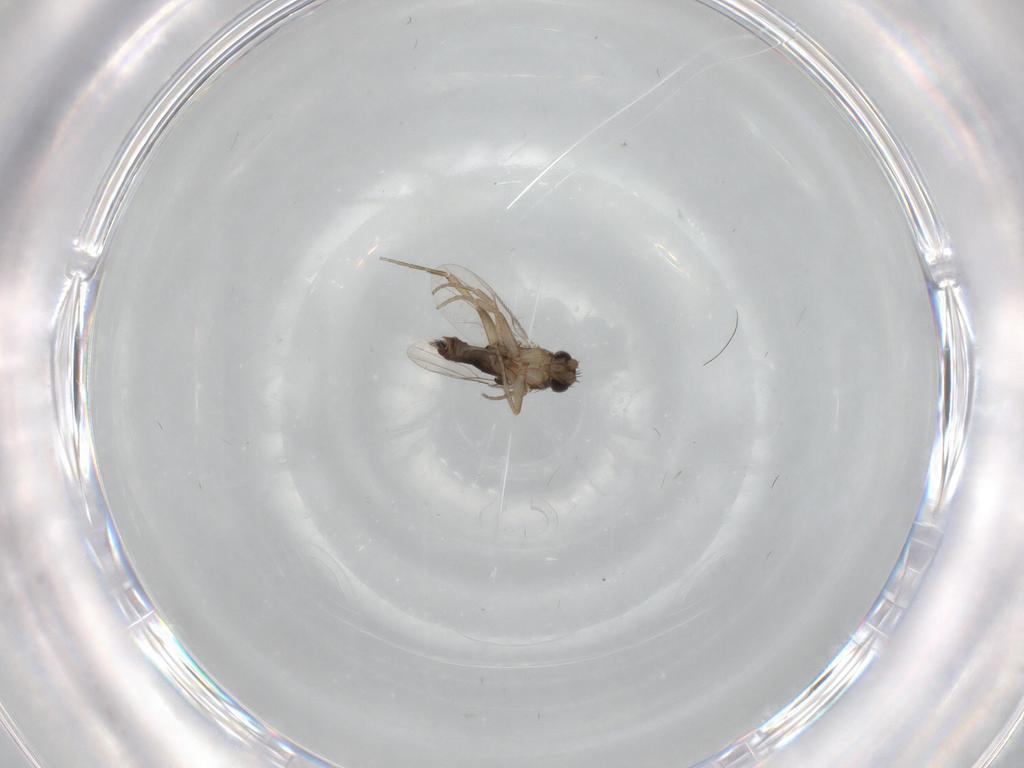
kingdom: Animalia
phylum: Arthropoda
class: Insecta
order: Diptera
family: Phoridae
